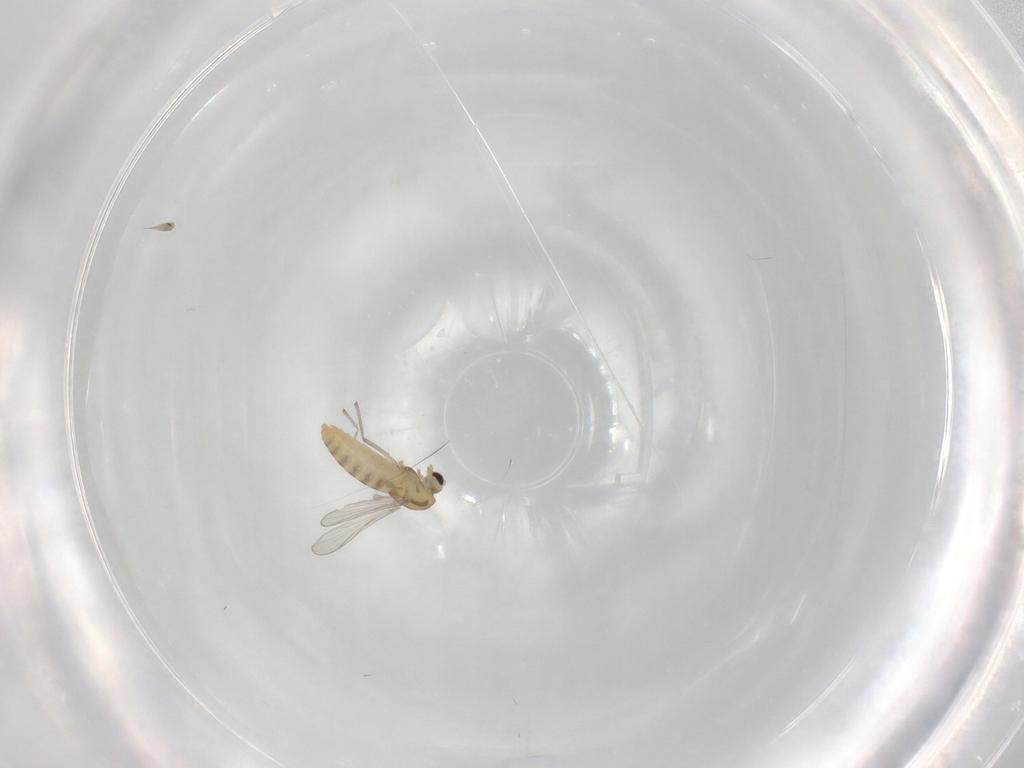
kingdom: Animalia
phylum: Arthropoda
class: Insecta
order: Diptera
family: Chironomidae
